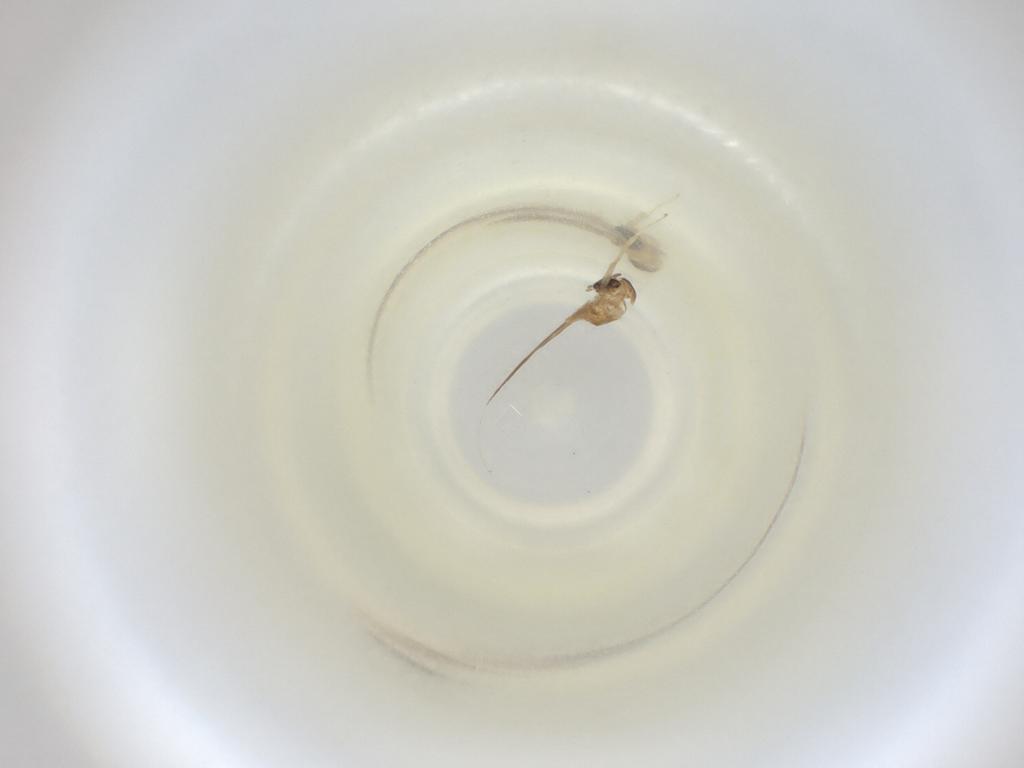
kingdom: Animalia
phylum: Arthropoda
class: Insecta
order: Diptera
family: Cecidomyiidae
